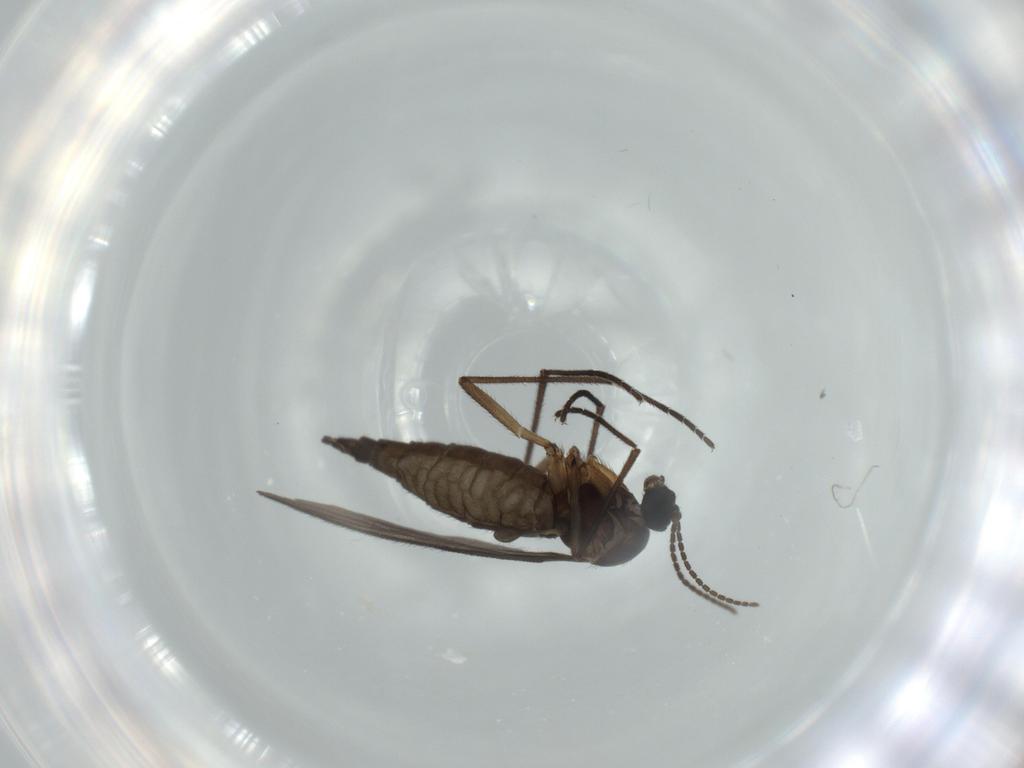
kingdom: Animalia
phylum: Arthropoda
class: Insecta
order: Diptera
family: Sciaridae
